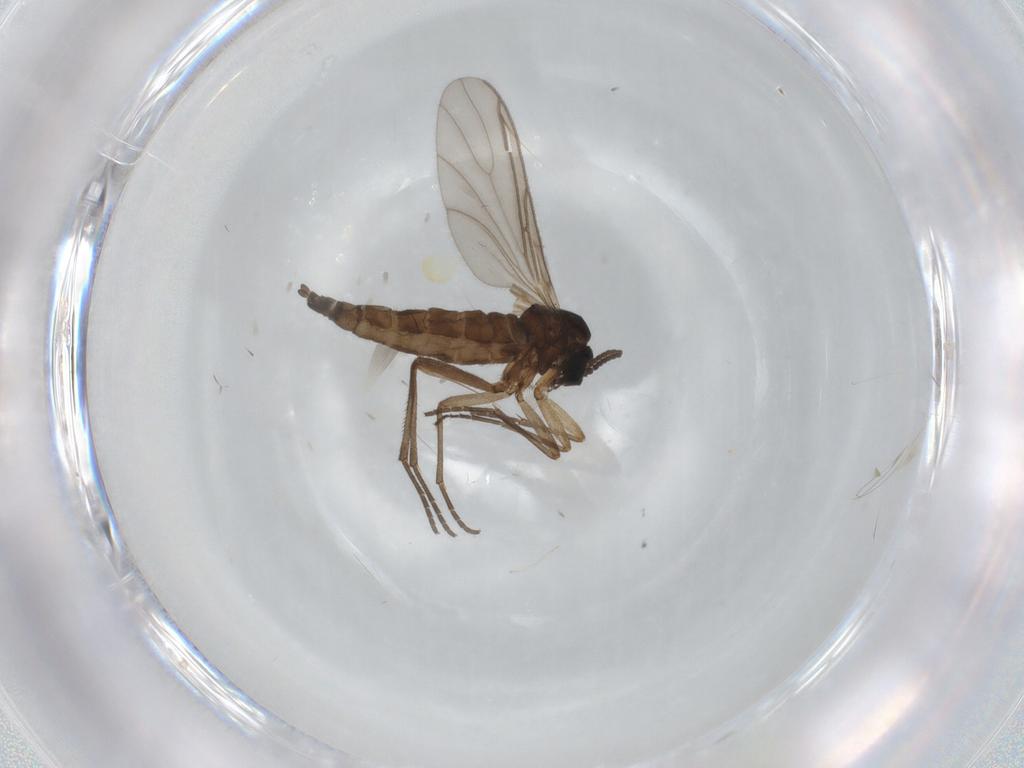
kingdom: Animalia
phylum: Arthropoda
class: Insecta
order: Diptera
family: Sciaridae
